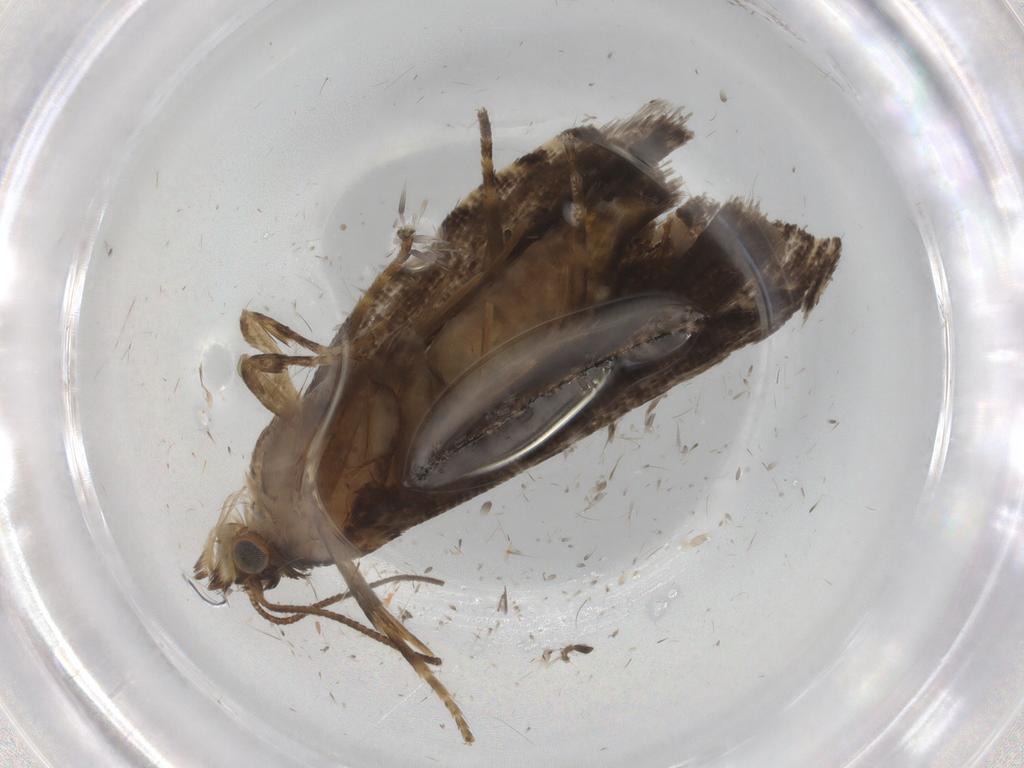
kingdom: Animalia
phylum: Arthropoda
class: Insecta
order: Lepidoptera
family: Tortricidae
